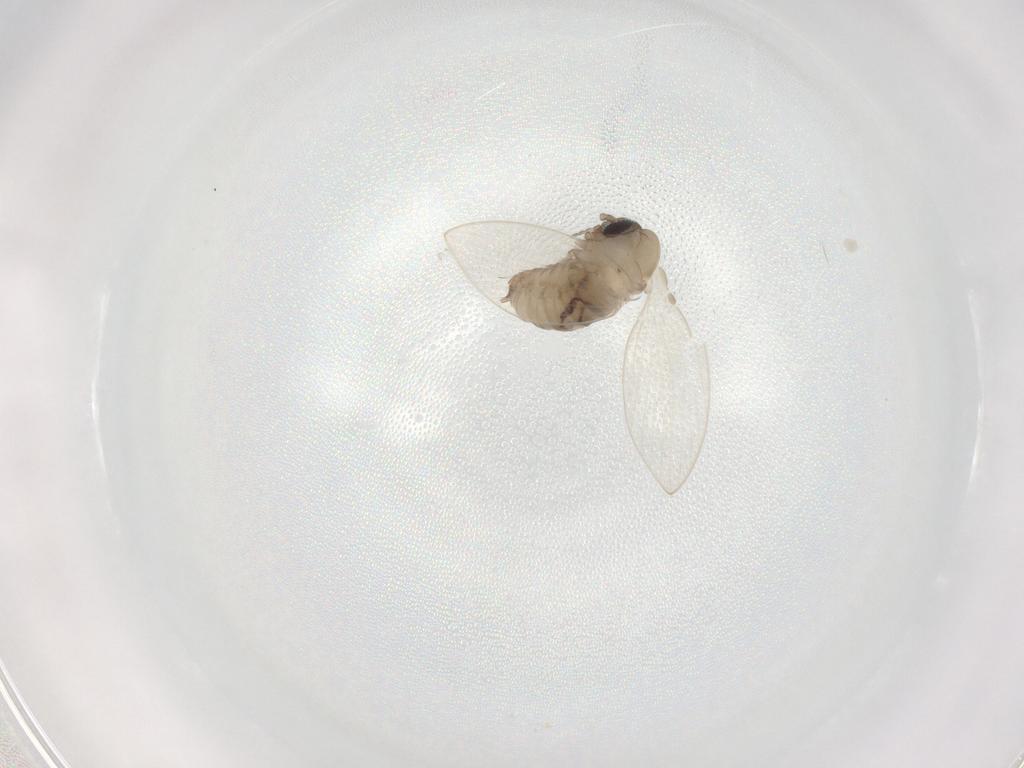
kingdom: Animalia
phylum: Arthropoda
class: Insecta
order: Diptera
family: Psychodidae
